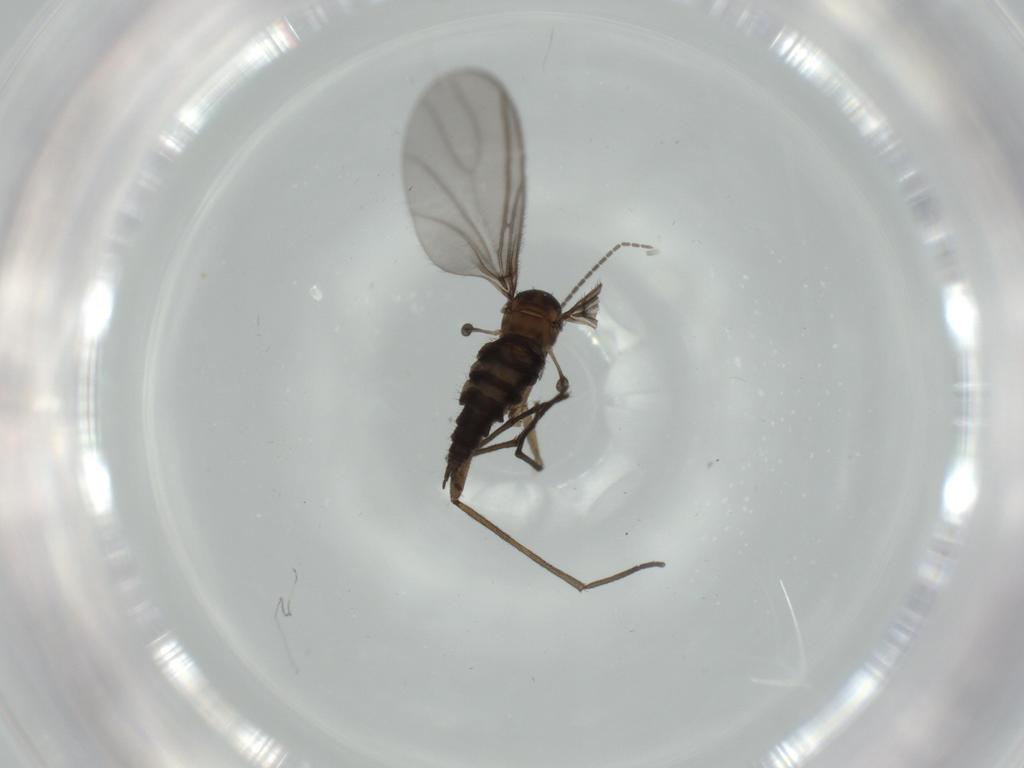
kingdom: Animalia
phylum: Arthropoda
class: Insecta
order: Diptera
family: Sciaridae
